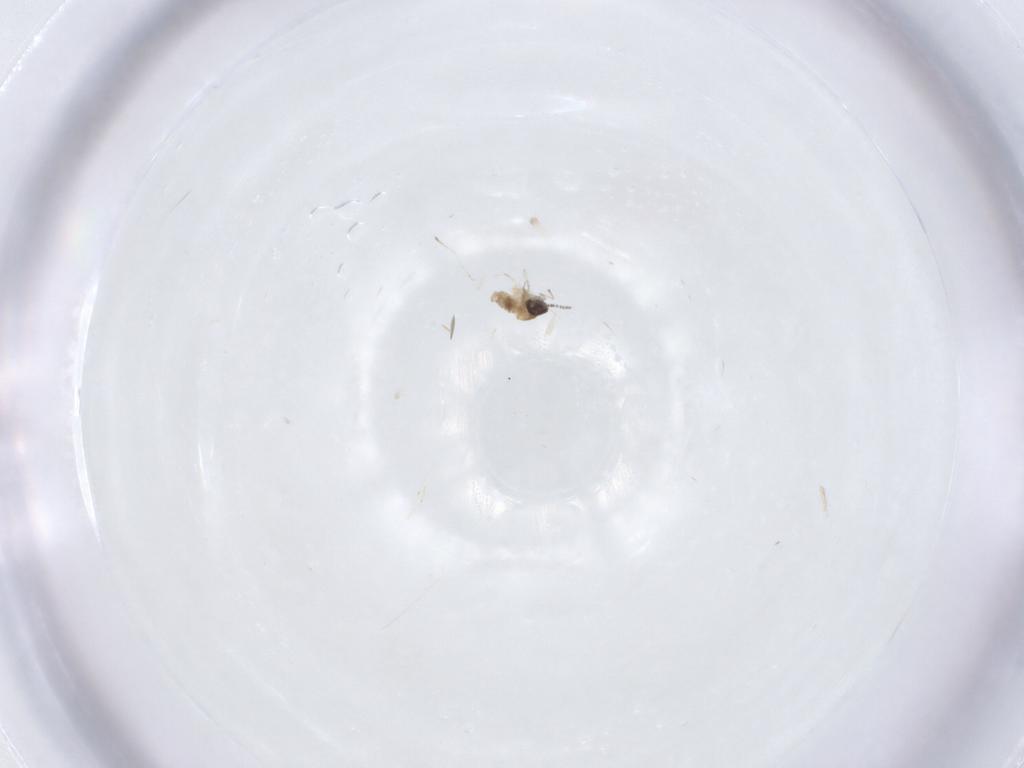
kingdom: Animalia
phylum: Arthropoda
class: Insecta
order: Diptera
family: Cecidomyiidae
